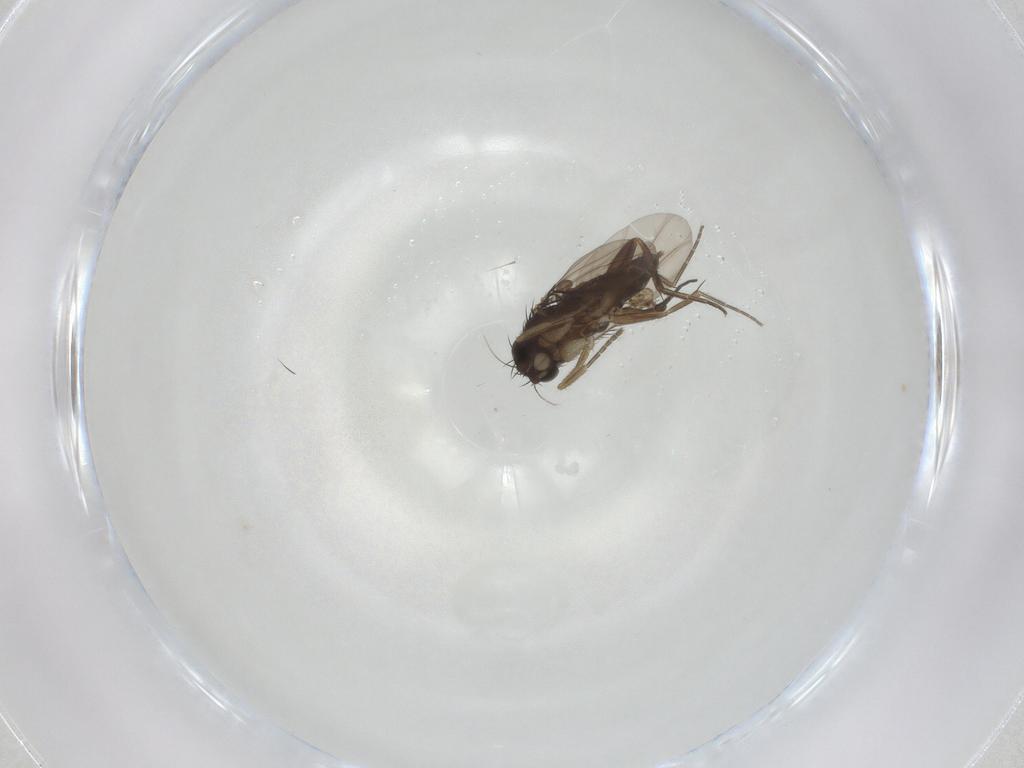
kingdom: Animalia
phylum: Arthropoda
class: Insecta
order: Diptera
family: Phoridae
